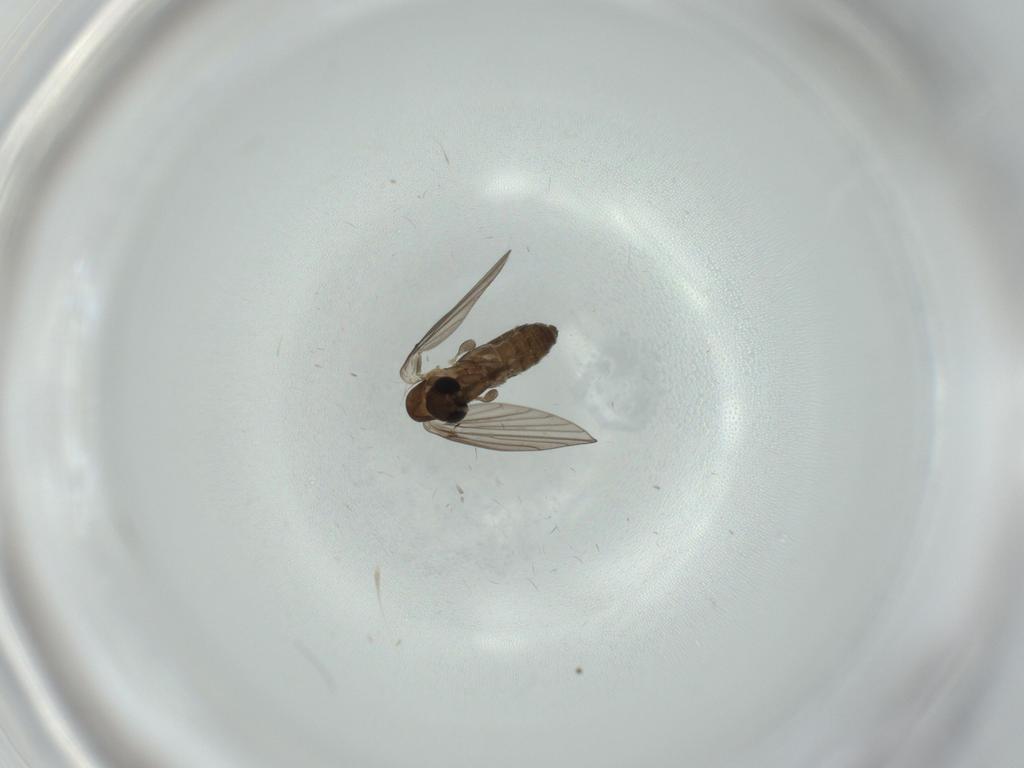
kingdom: Animalia
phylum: Arthropoda
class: Insecta
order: Diptera
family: Psychodidae
